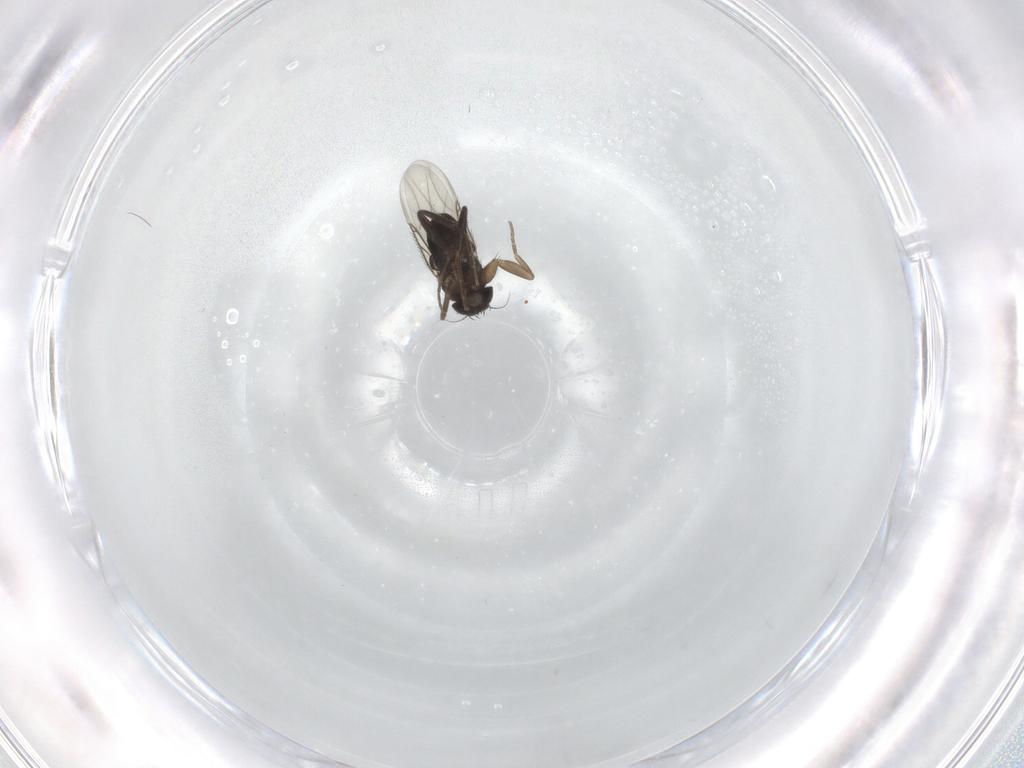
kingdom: Animalia
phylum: Arthropoda
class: Insecta
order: Diptera
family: Phoridae
